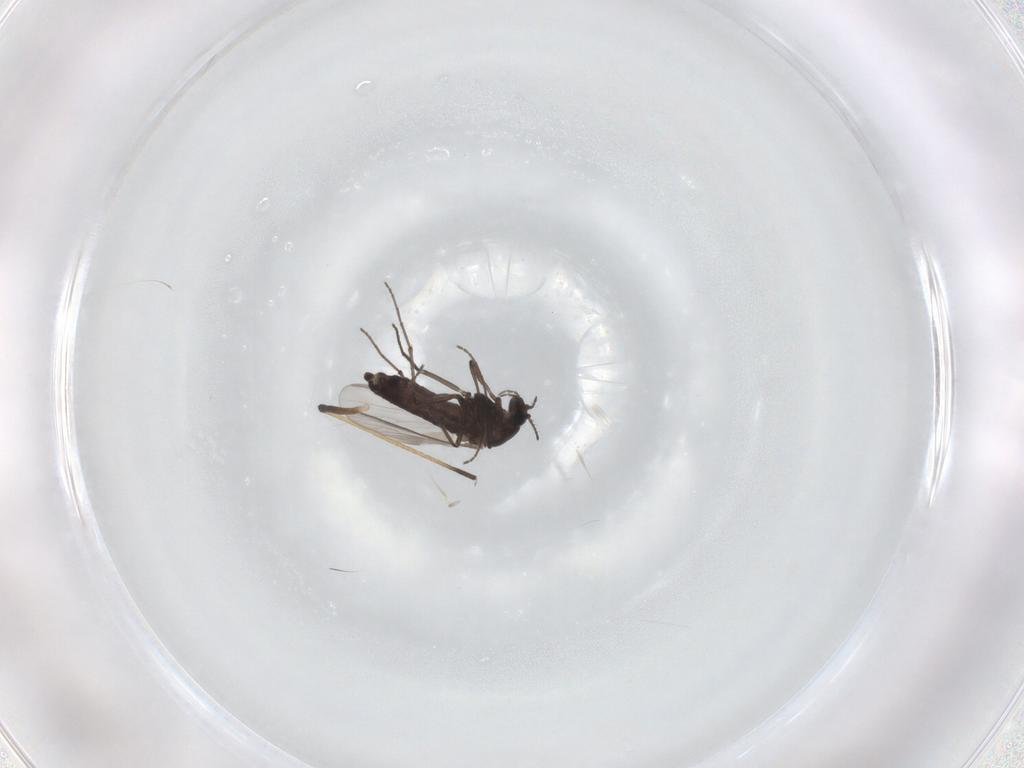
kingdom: Animalia
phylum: Arthropoda
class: Insecta
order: Diptera
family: Chironomidae
